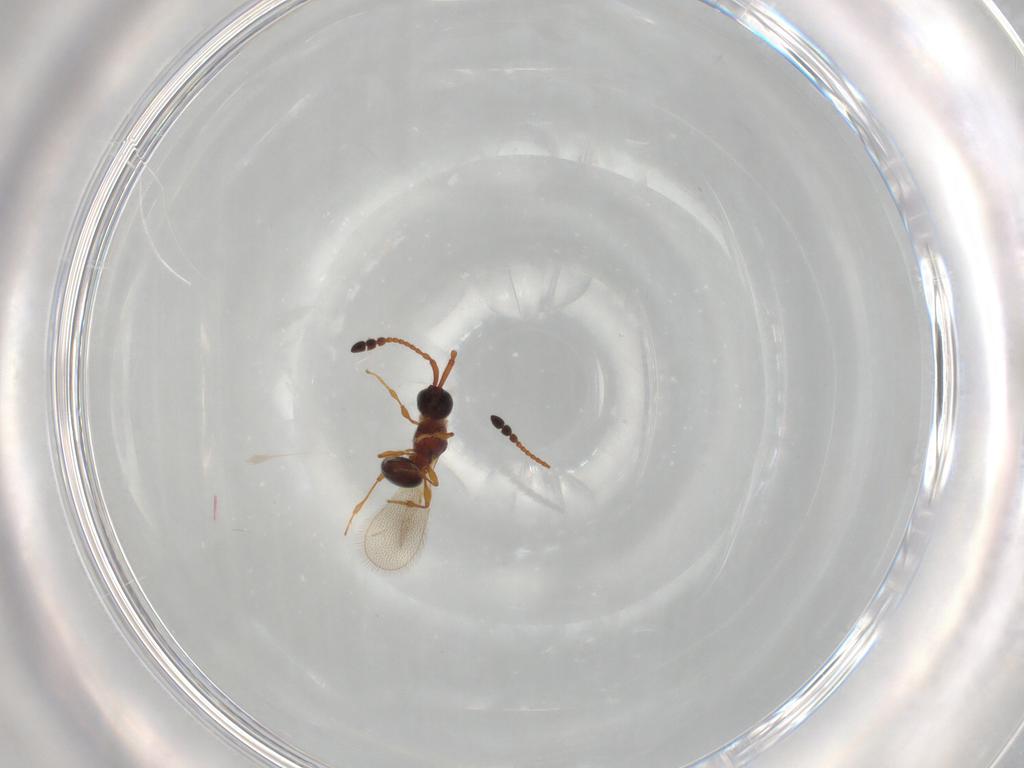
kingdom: Animalia
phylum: Arthropoda
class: Insecta
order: Hymenoptera
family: Diapriidae
